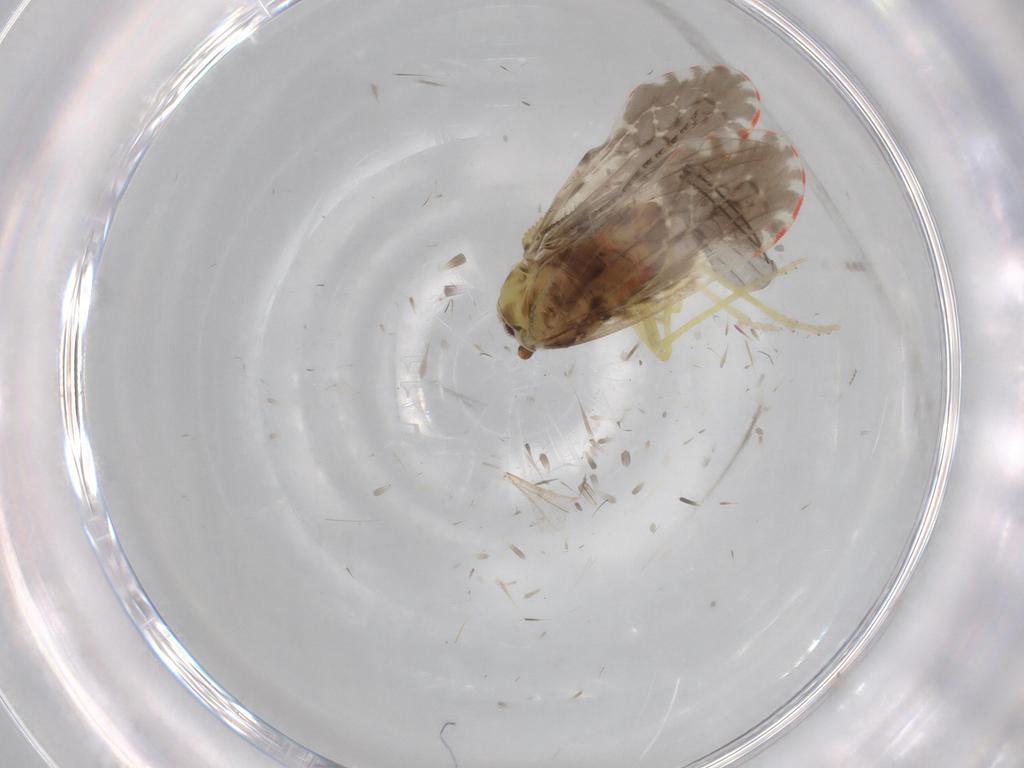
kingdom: Animalia
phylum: Arthropoda
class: Insecta
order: Hemiptera
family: Derbidae
